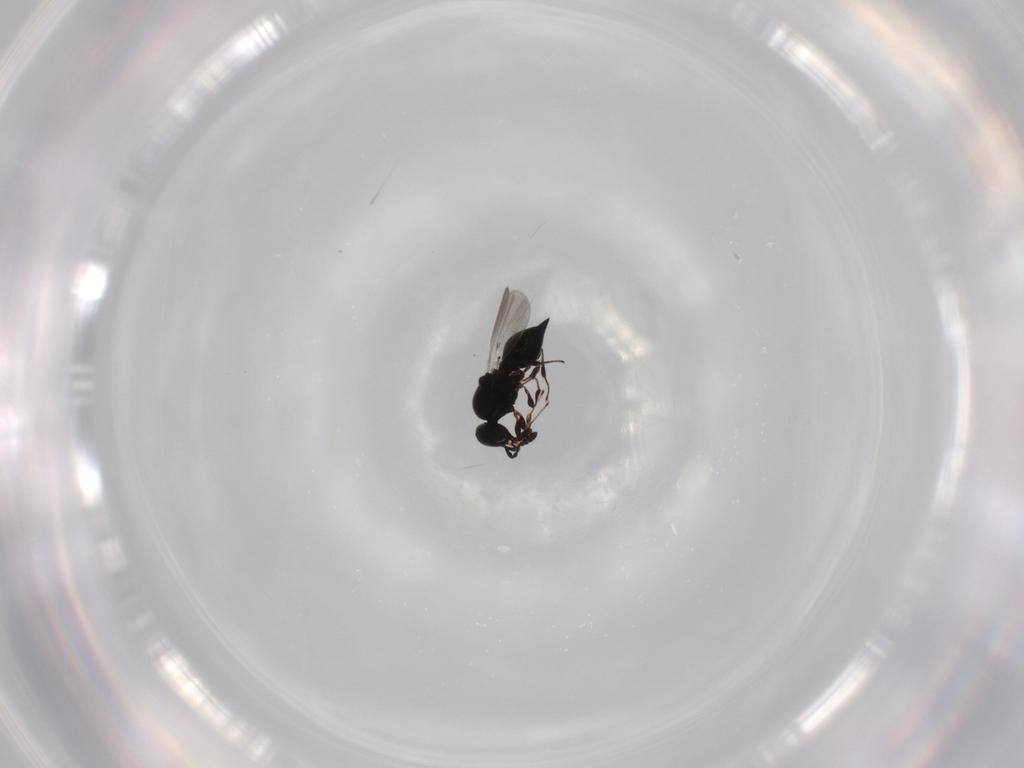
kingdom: Animalia
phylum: Arthropoda
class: Insecta
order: Hymenoptera
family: Platygastridae
